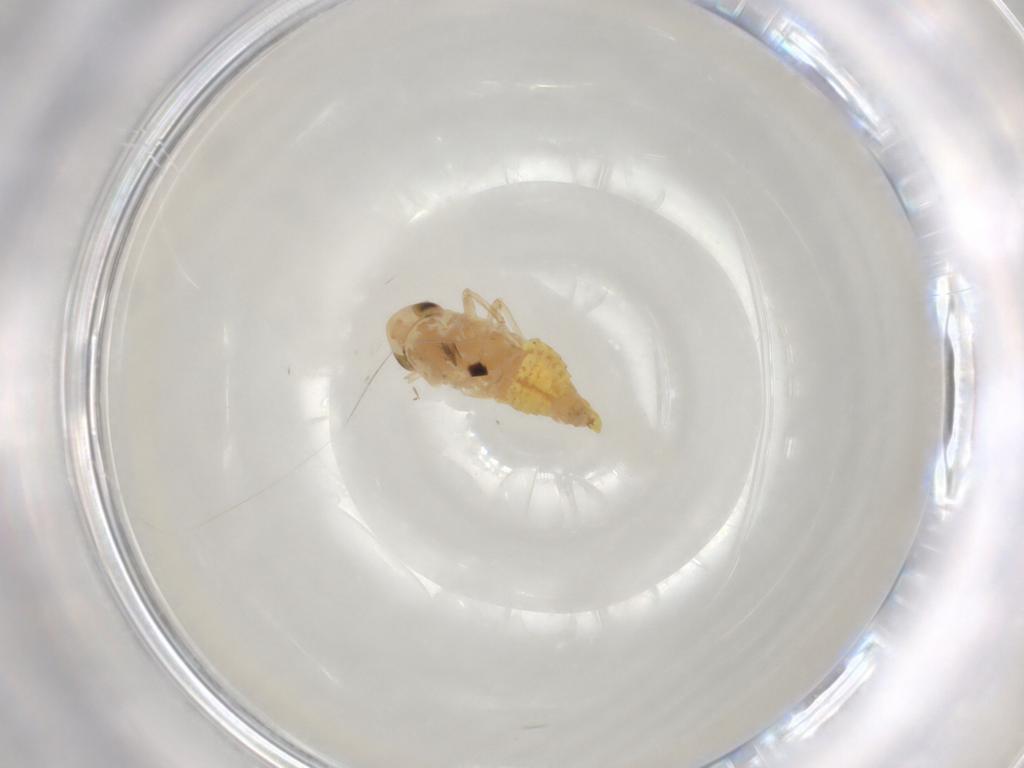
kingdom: Animalia
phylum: Arthropoda
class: Insecta
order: Hemiptera
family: Cicadellidae
